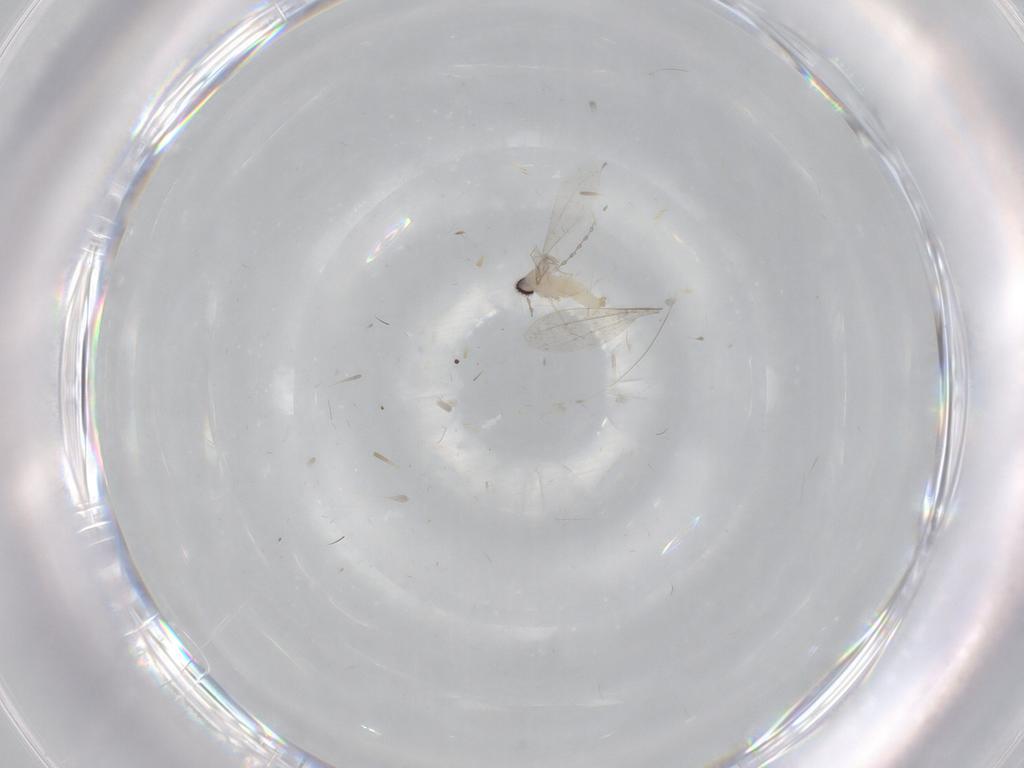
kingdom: Animalia
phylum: Arthropoda
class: Insecta
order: Diptera
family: Cecidomyiidae
